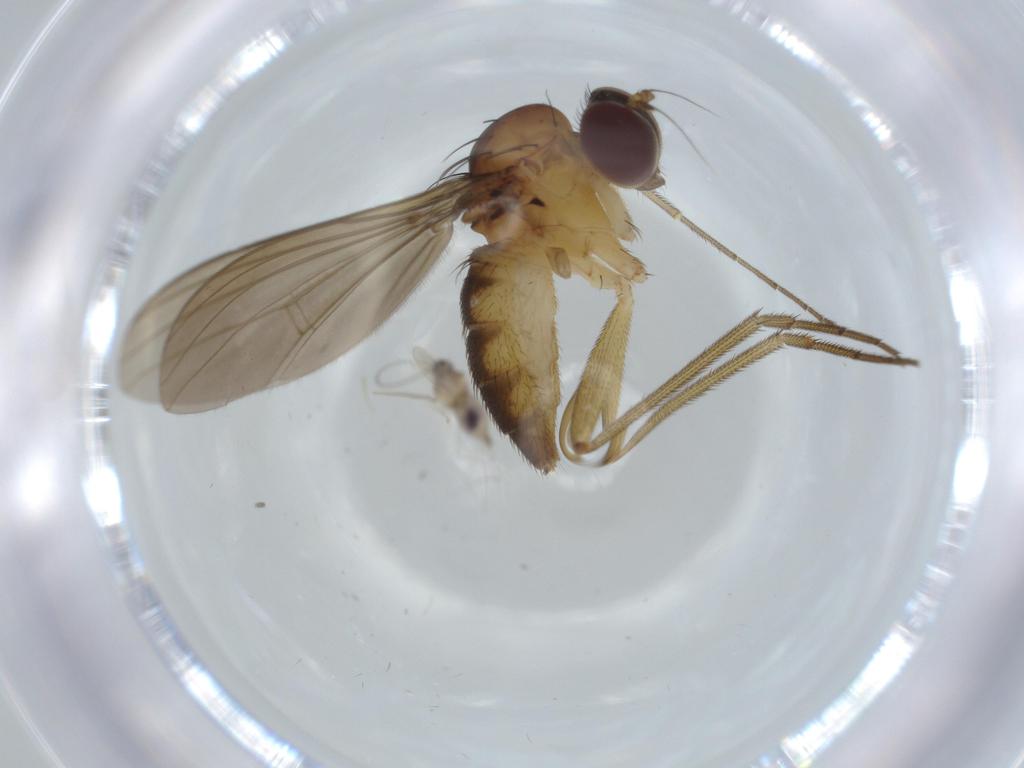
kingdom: Animalia
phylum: Arthropoda
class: Insecta
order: Diptera
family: Dolichopodidae
